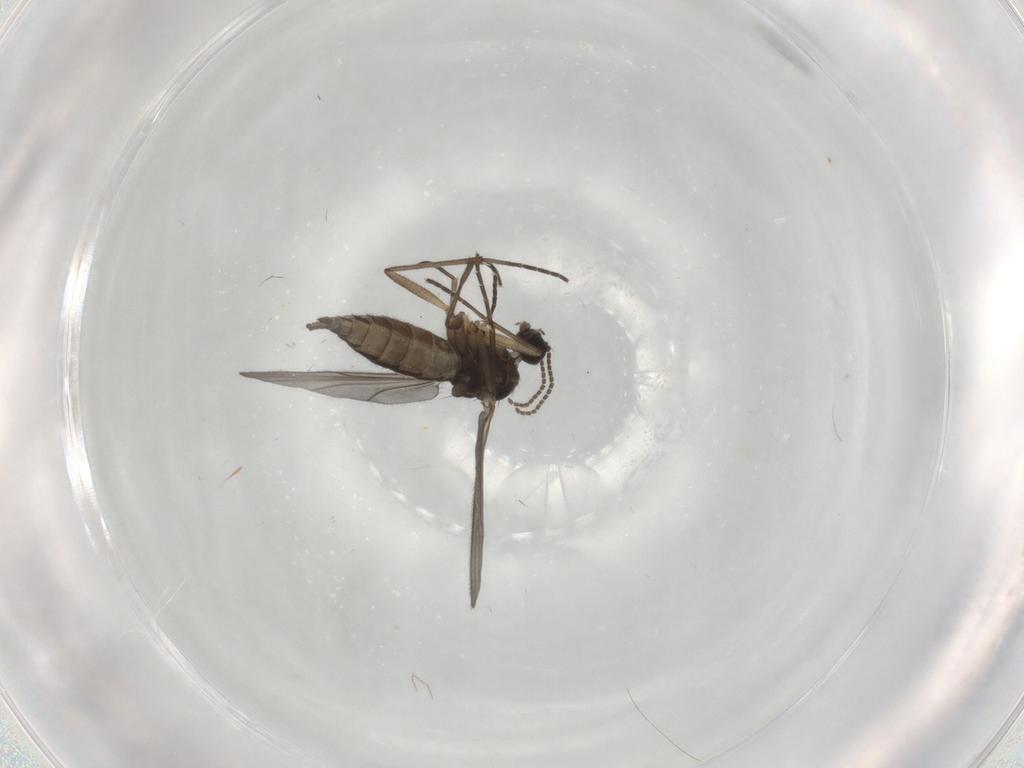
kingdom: Animalia
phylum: Arthropoda
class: Insecta
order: Diptera
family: Sciaridae
